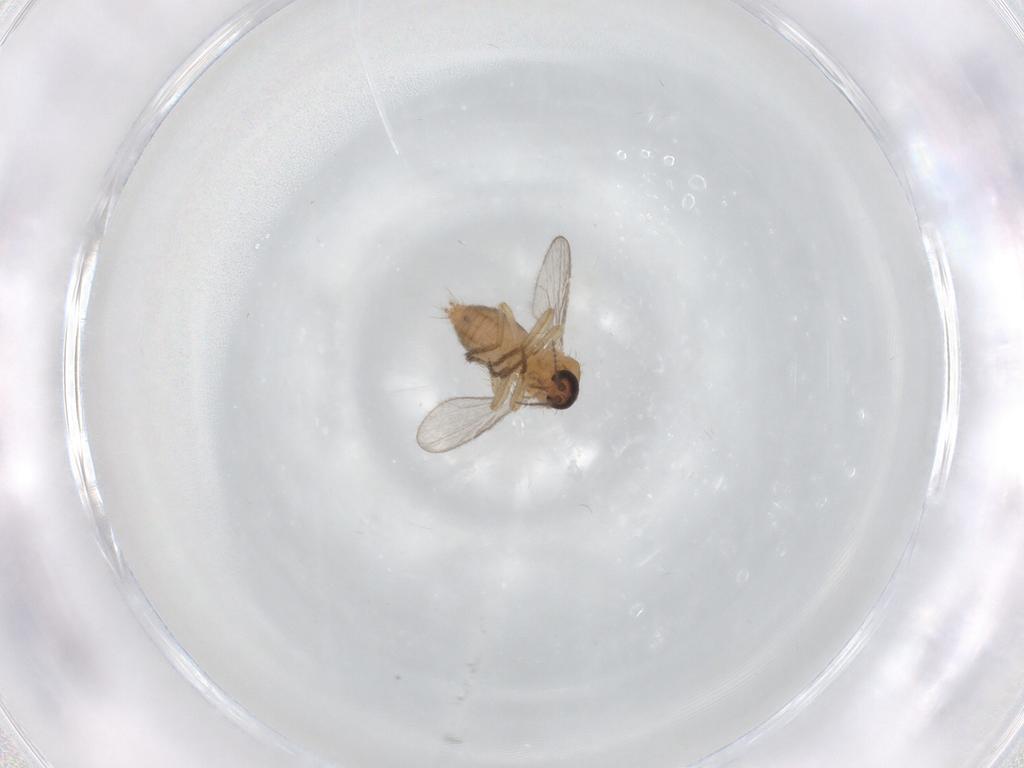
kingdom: Animalia
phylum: Arthropoda
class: Insecta
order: Diptera
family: Ceratopogonidae
